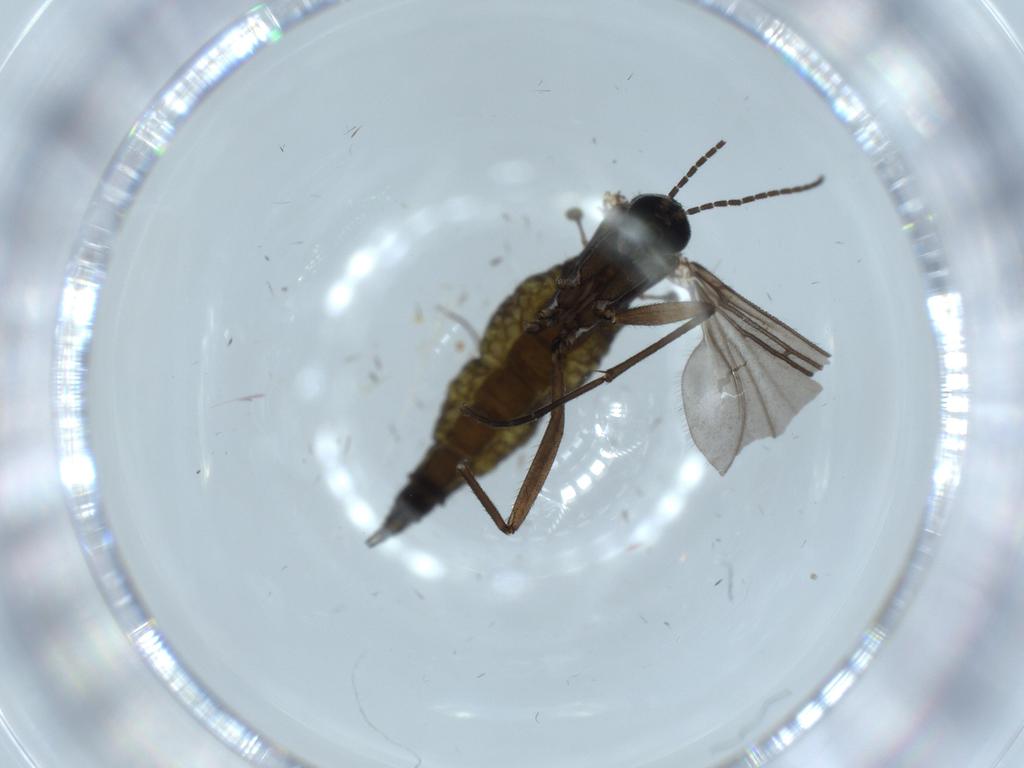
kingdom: Animalia
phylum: Arthropoda
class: Insecta
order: Diptera
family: Sciaridae
